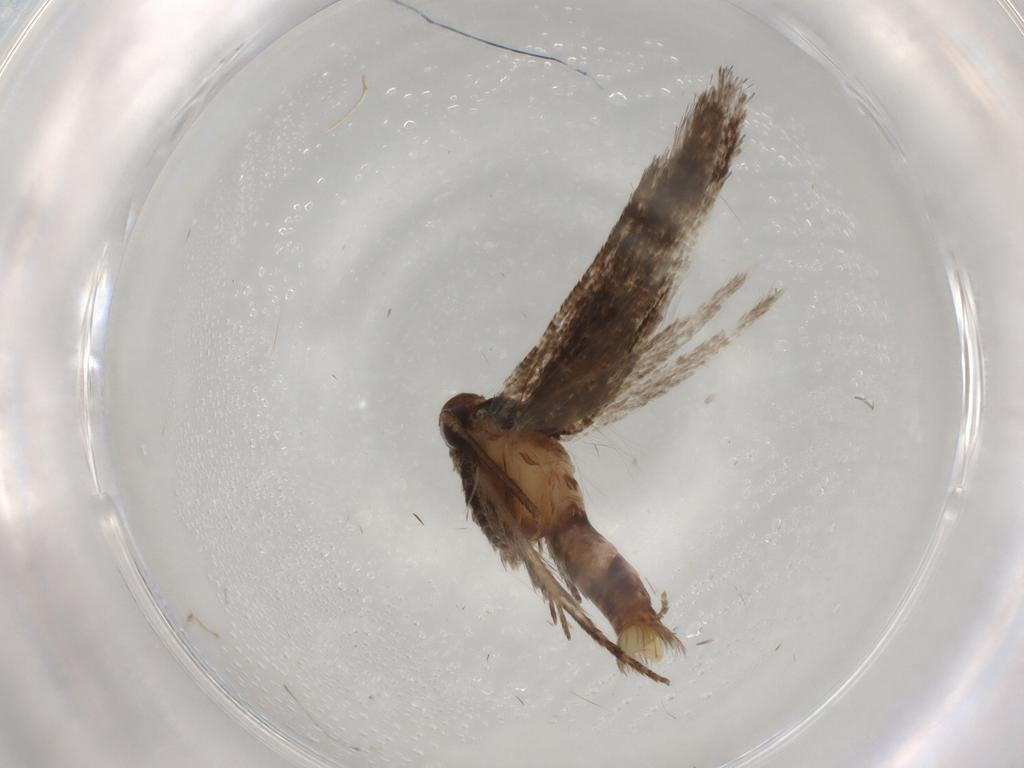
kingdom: Animalia
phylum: Arthropoda
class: Insecta
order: Lepidoptera
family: Cosmopterigidae
